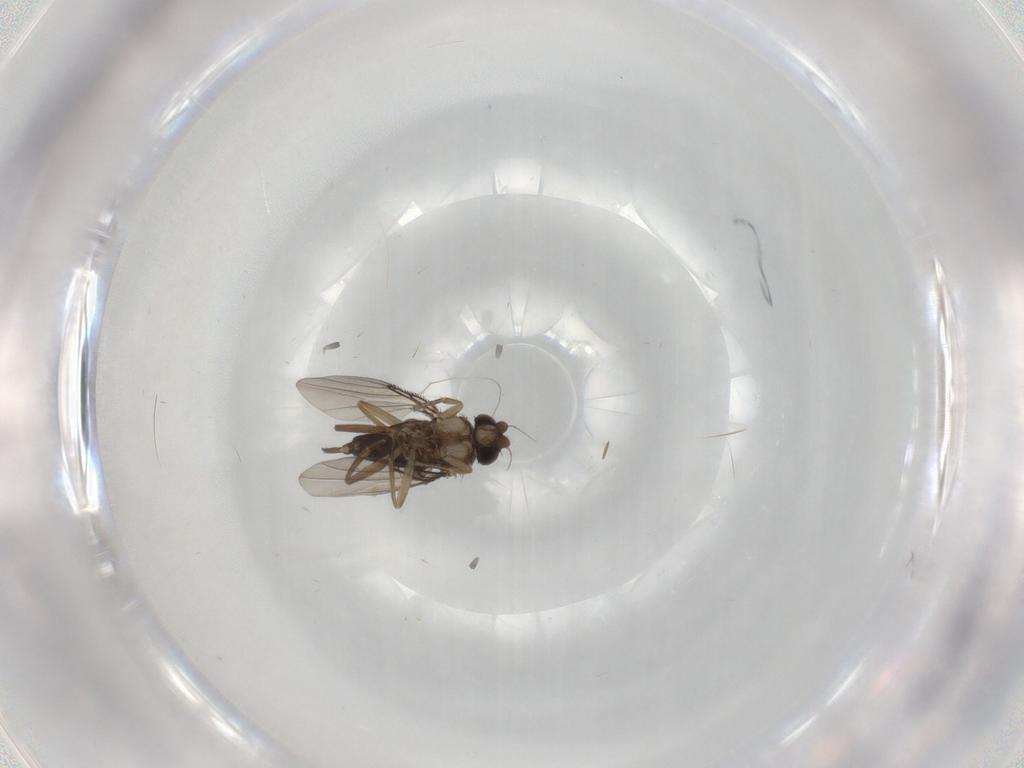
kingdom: Animalia
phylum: Arthropoda
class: Insecta
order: Diptera
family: Phoridae
